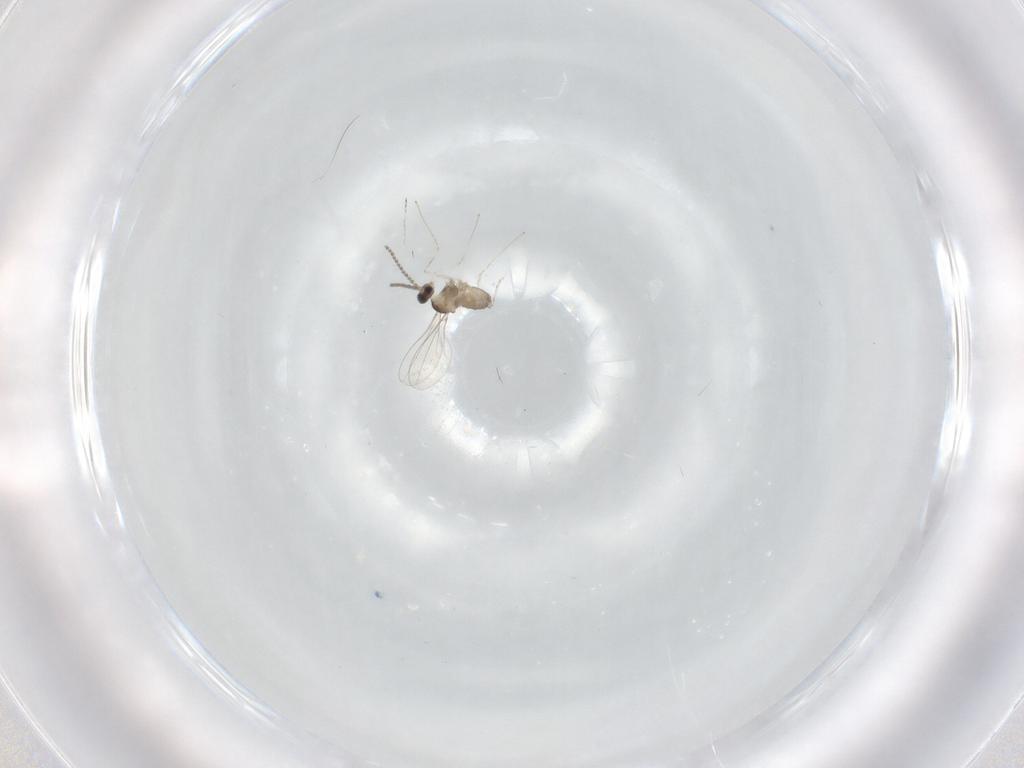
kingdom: Animalia
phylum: Arthropoda
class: Insecta
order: Diptera
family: Cecidomyiidae
